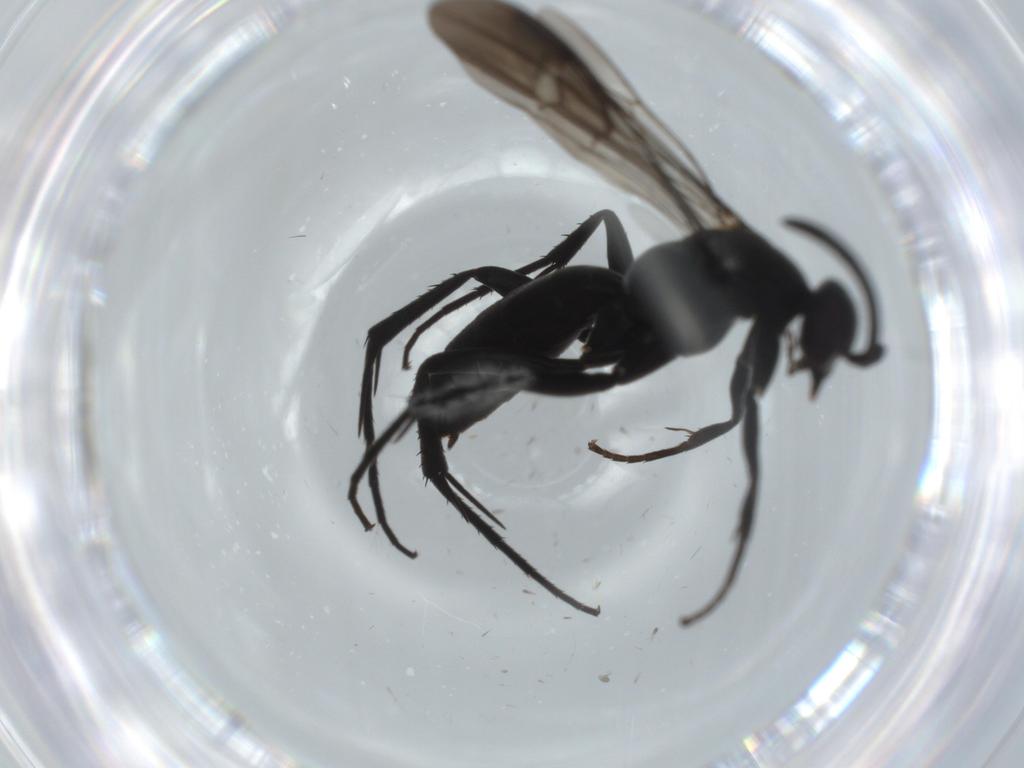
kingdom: Animalia
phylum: Arthropoda
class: Insecta
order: Hymenoptera
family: Pompilidae
